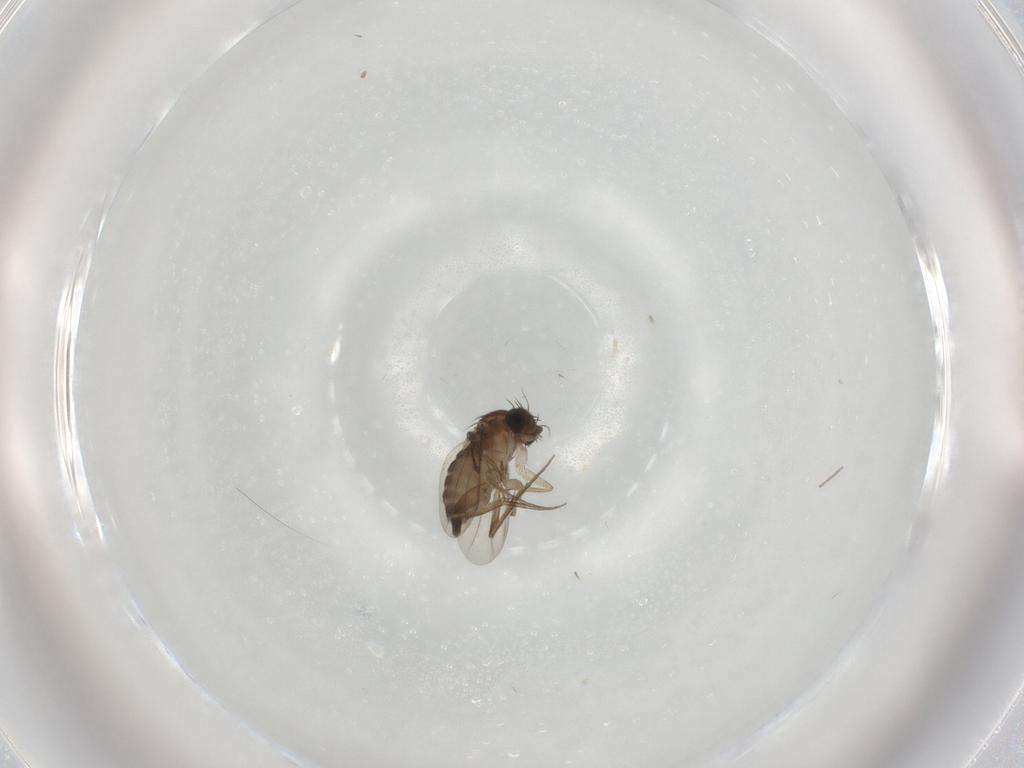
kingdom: Animalia
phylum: Arthropoda
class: Insecta
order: Diptera
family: Phoridae
